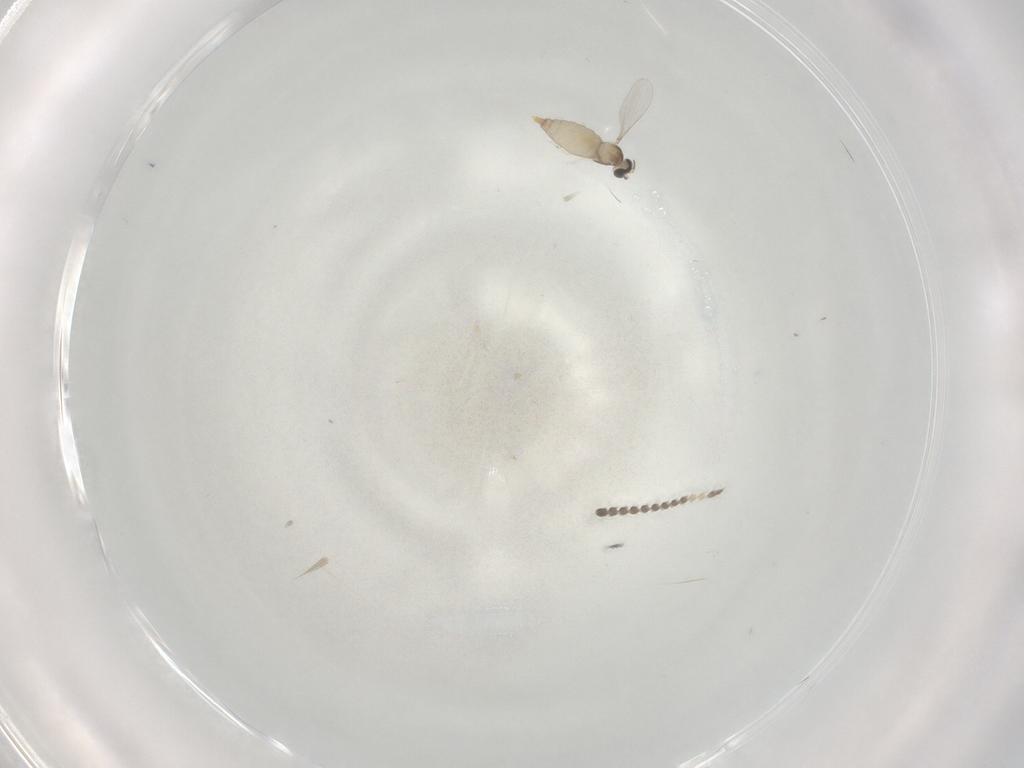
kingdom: Animalia
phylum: Arthropoda
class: Insecta
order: Diptera
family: Limoniidae
